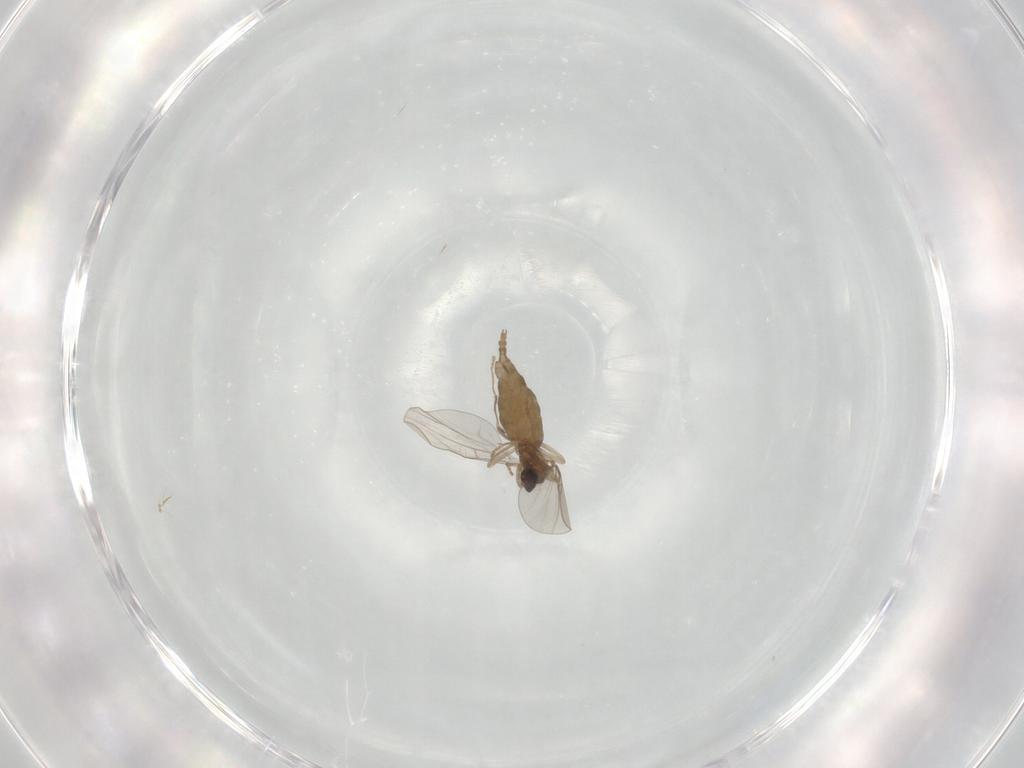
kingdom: Animalia
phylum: Arthropoda
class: Insecta
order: Diptera
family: Cecidomyiidae
